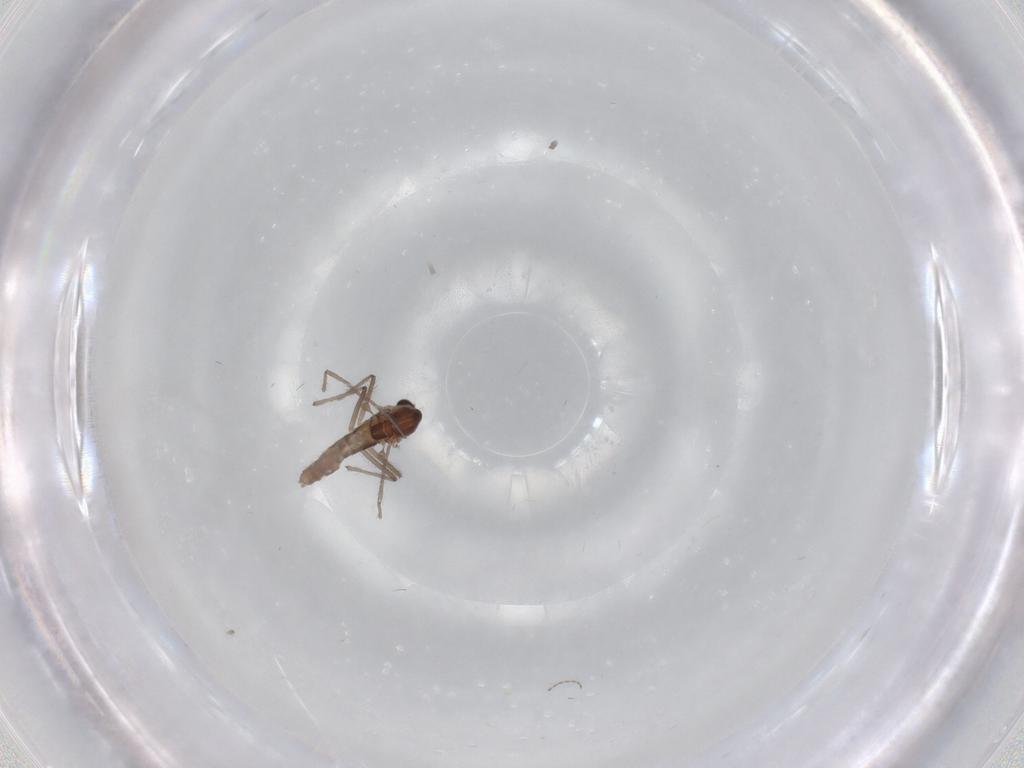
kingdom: Animalia
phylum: Arthropoda
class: Insecta
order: Diptera
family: Chironomidae
